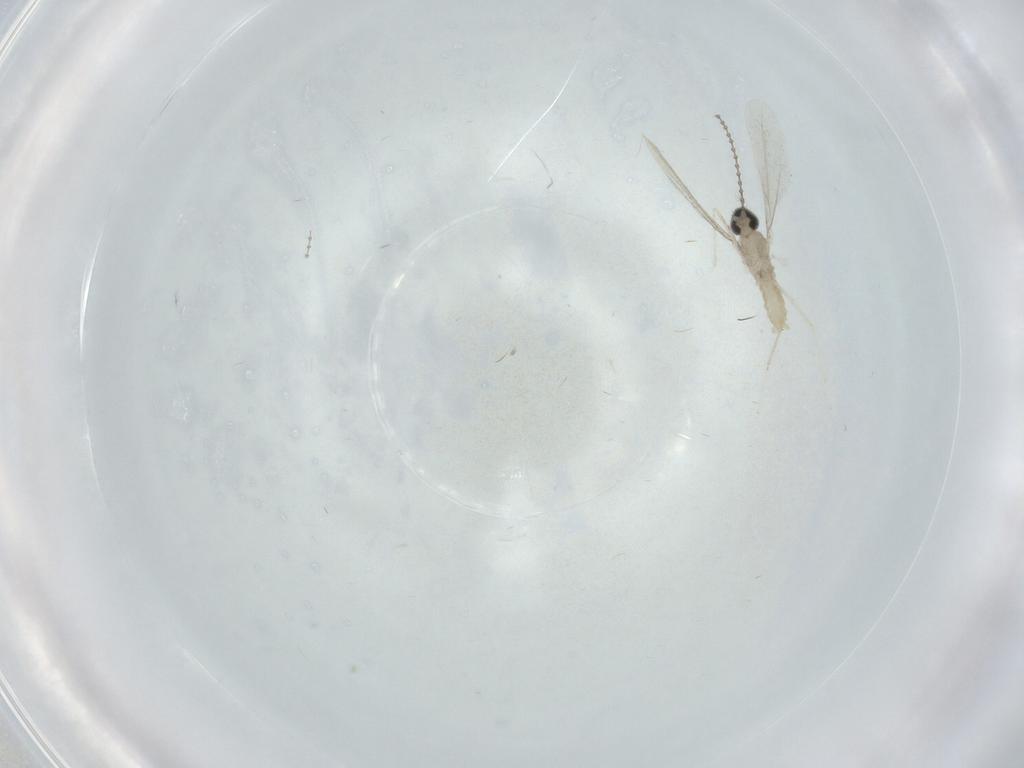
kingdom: Animalia
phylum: Arthropoda
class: Insecta
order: Diptera
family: Cecidomyiidae
